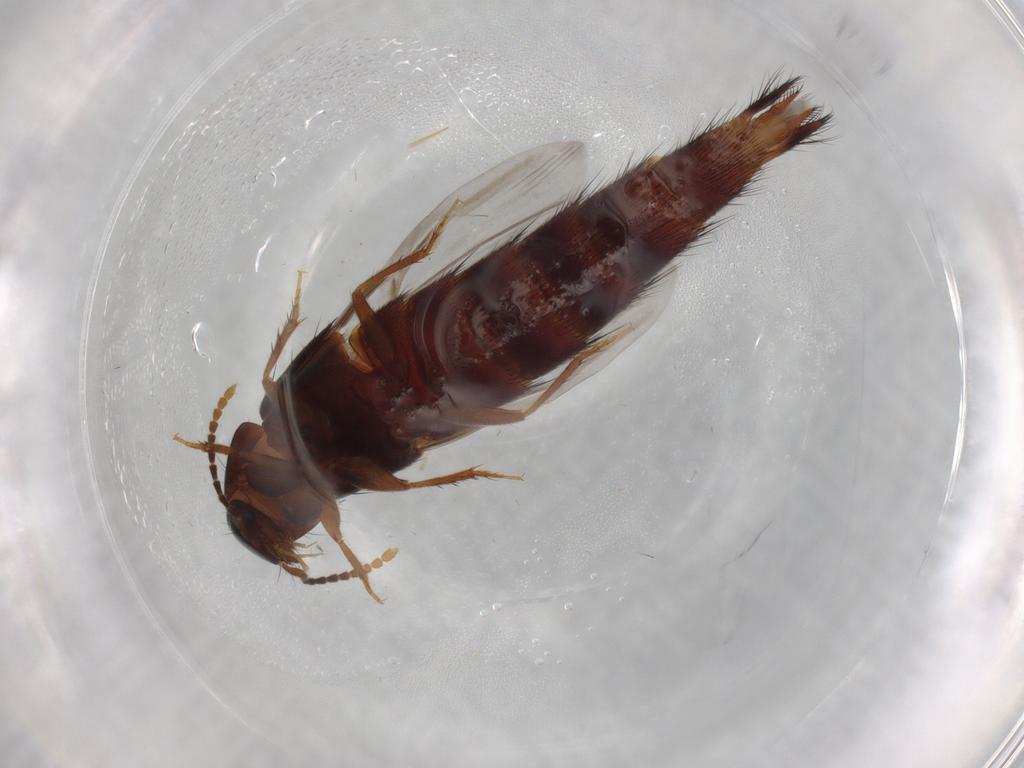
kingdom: Animalia
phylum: Arthropoda
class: Insecta
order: Coleoptera
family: Staphylinidae
